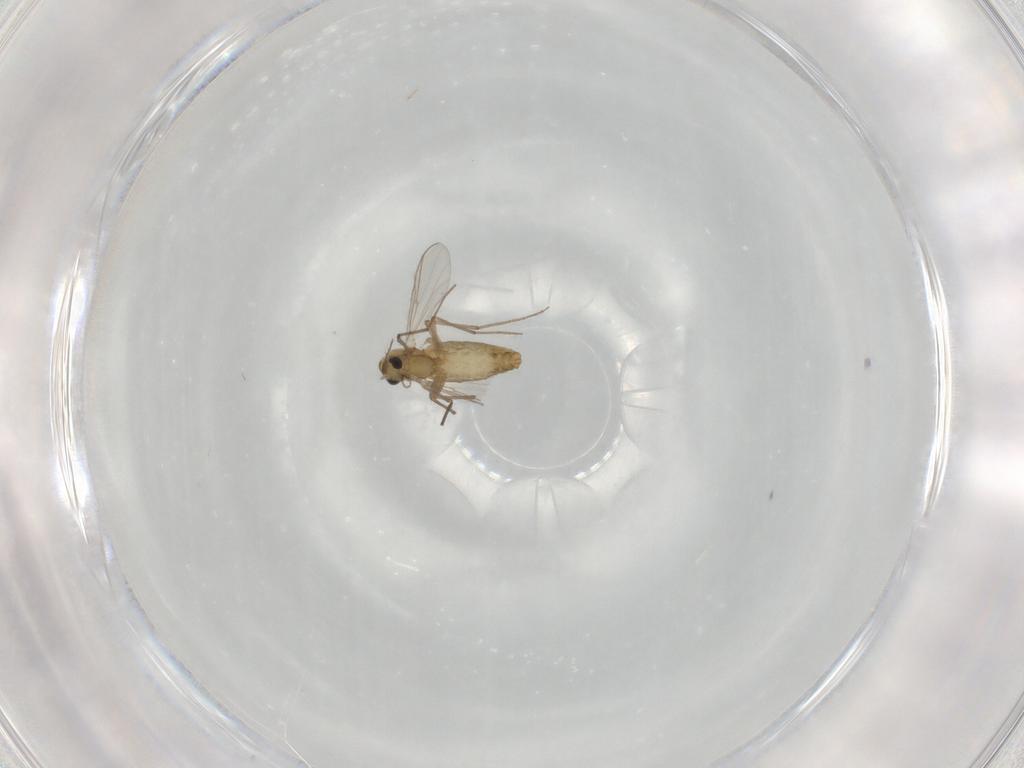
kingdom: Animalia
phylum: Arthropoda
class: Insecta
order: Diptera
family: Chironomidae
